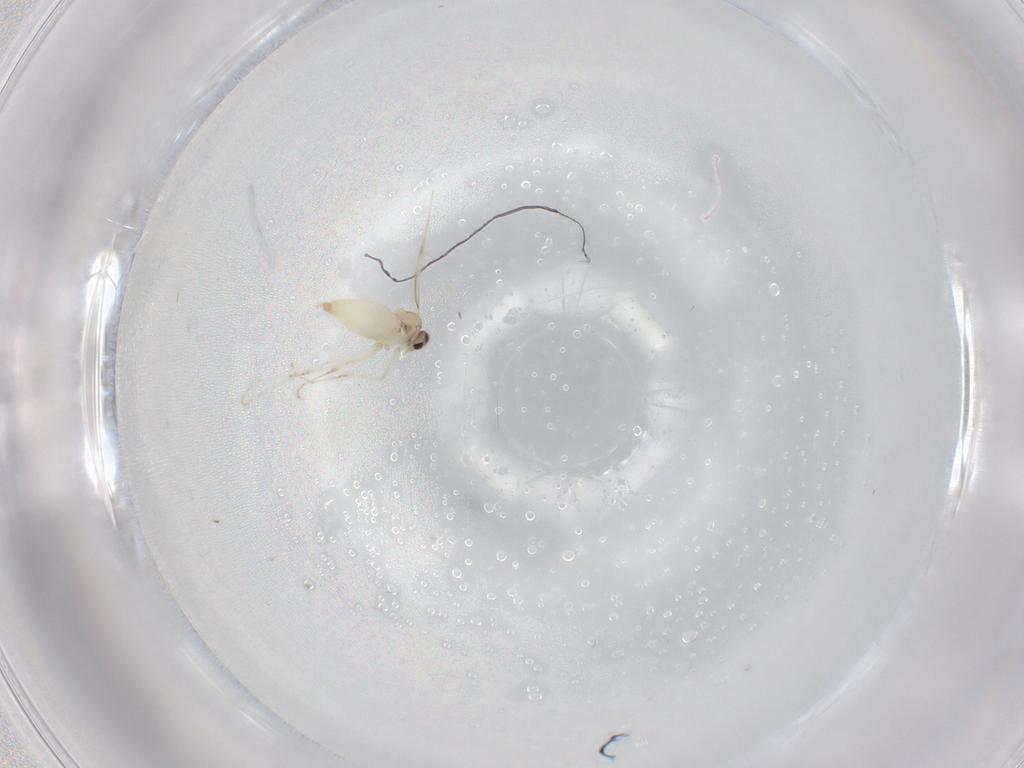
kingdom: Animalia
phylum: Arthropoda
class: Insecta
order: Diptera
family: Cecidomyiidae
